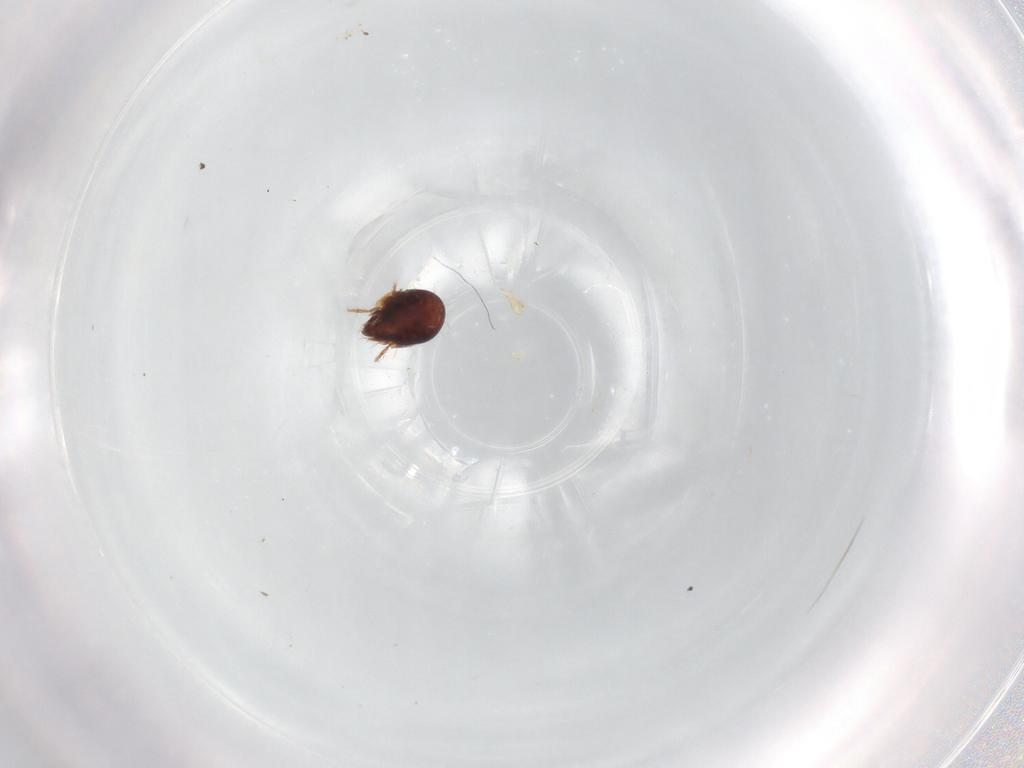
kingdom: Animalia
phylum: Arthropoda
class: Arachnida
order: Sarcoptiformes
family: Humerobatidae
